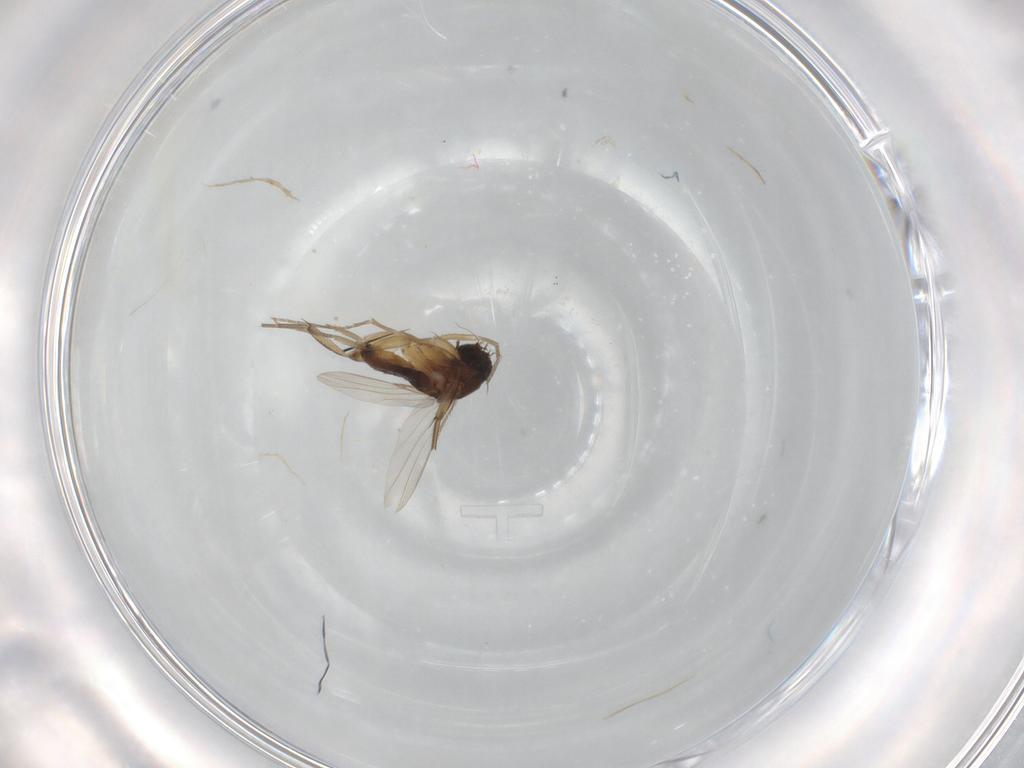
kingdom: Animalia
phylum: Arthropoda
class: Insecta
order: Diptera
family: Phoridae
